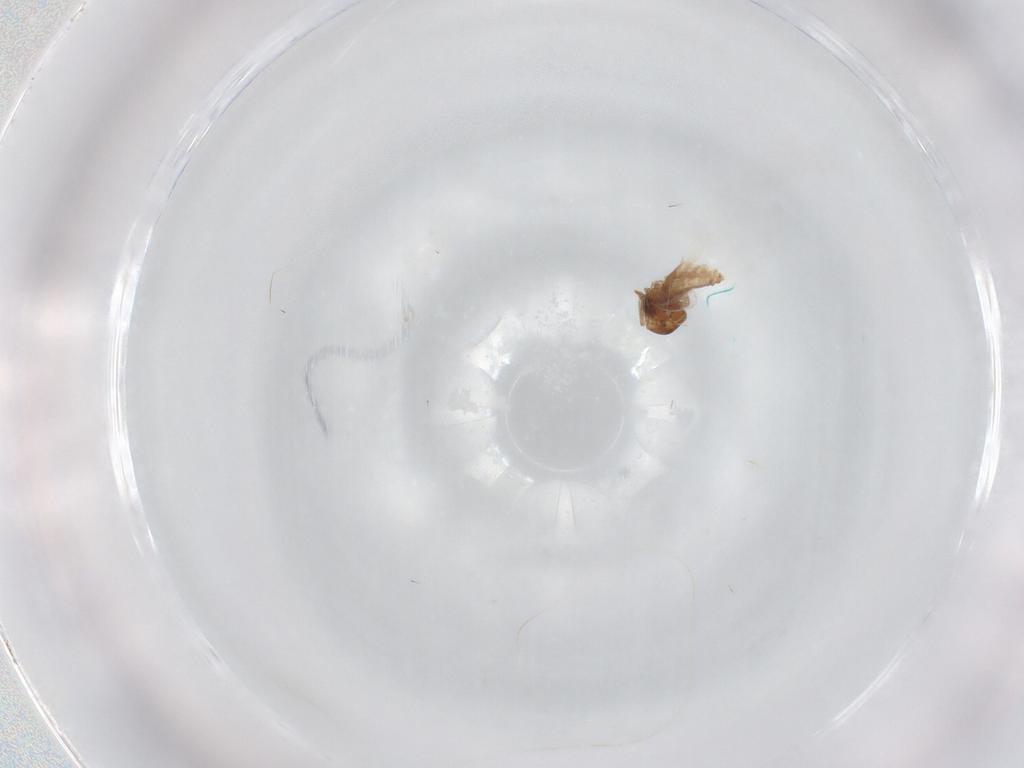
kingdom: Animalia
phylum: Arthropoda
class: Insecta
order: Diptera
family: Ceratopogonidae
